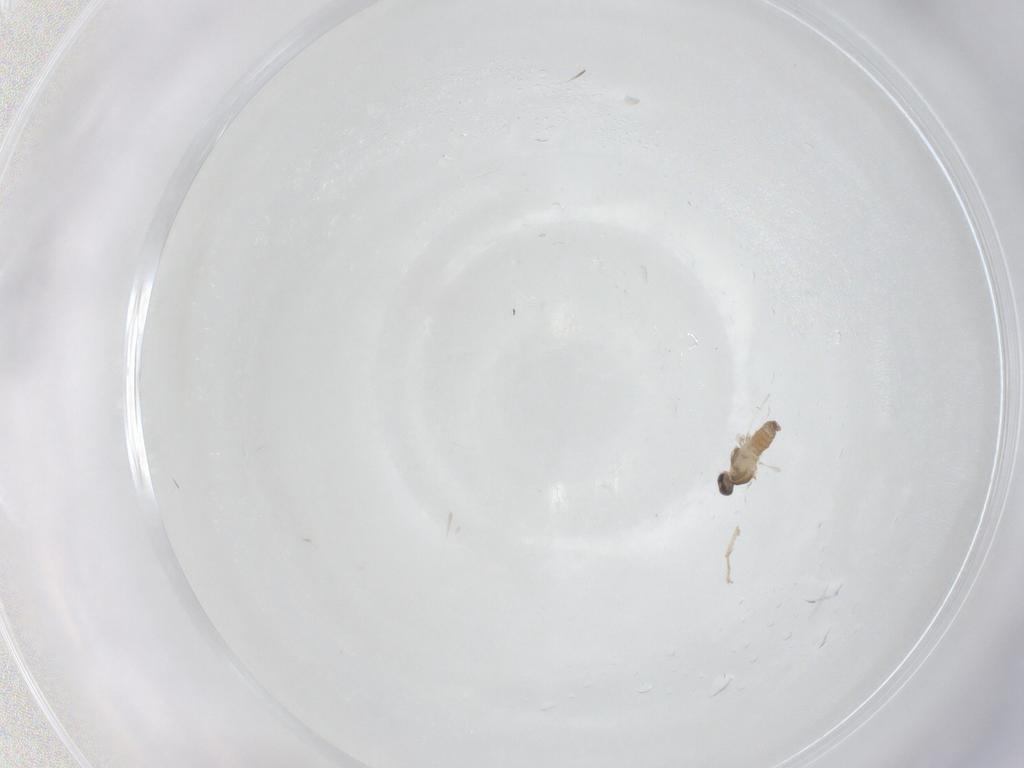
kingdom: Animalia
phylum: Arthropoda
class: Insecta
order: Diptera
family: Cecidomyiidae
